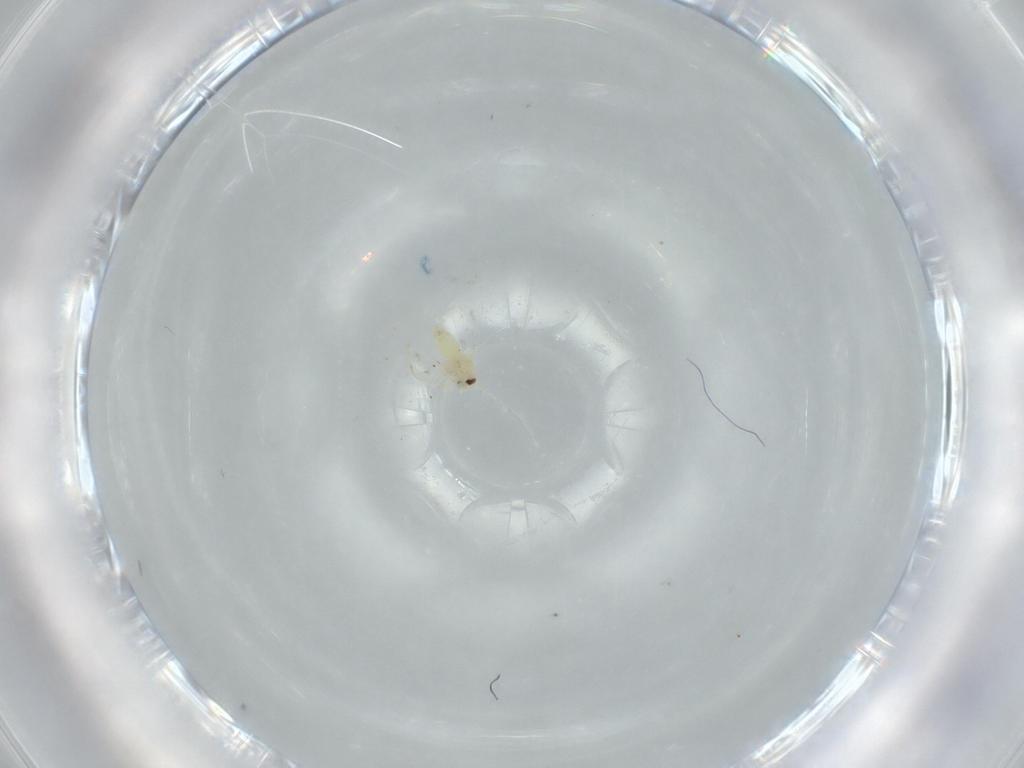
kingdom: Animalia
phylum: Arthropoda
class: Insecta
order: Hemiptera
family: Aleyrodidae
